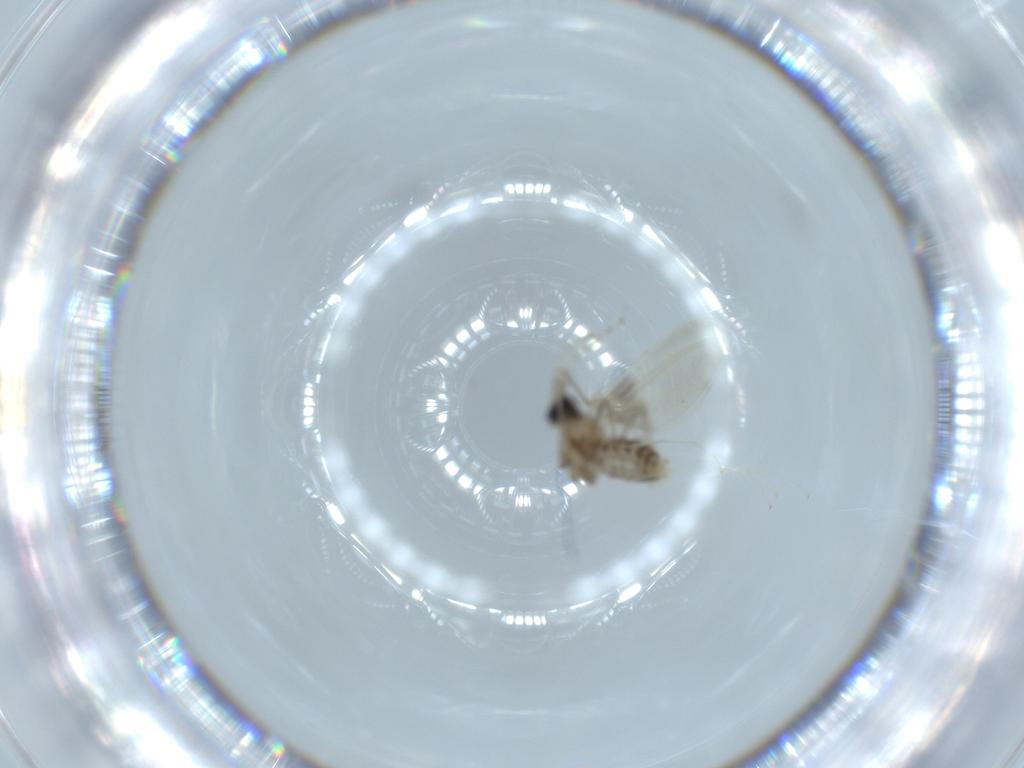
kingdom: Animalia
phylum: Arthropoda
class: Insecta
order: Diptera
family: Cecidomyiidae
